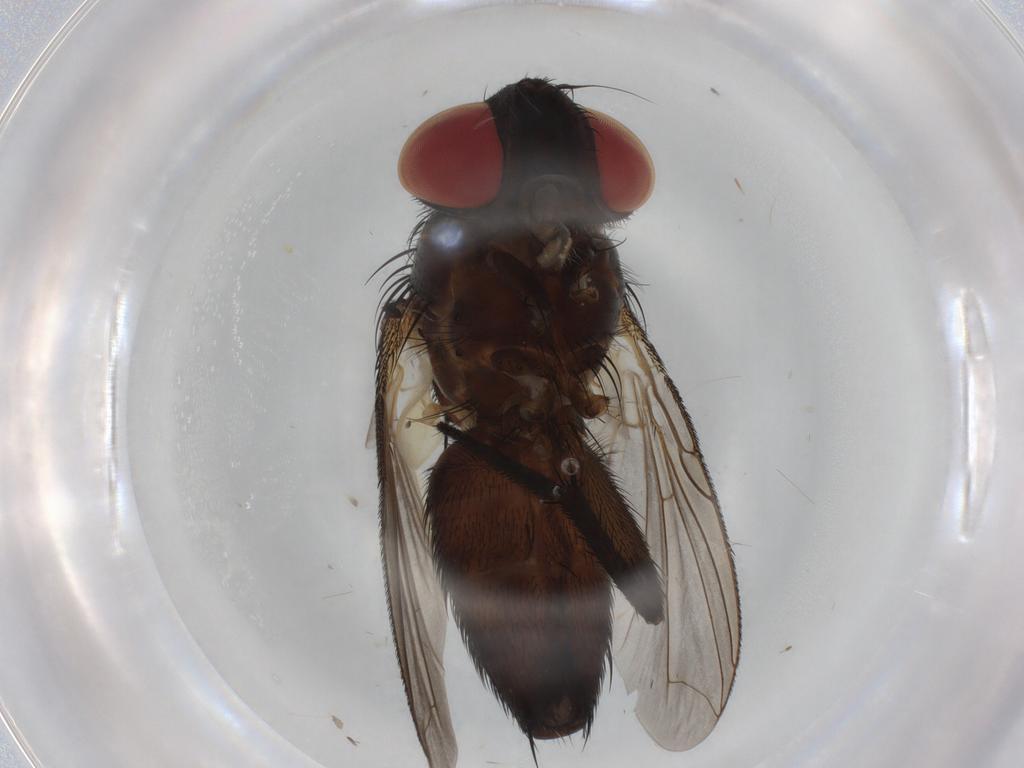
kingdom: Animalia
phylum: Arthropoda
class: Insecta
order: Diptera
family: Sarcophagidae
